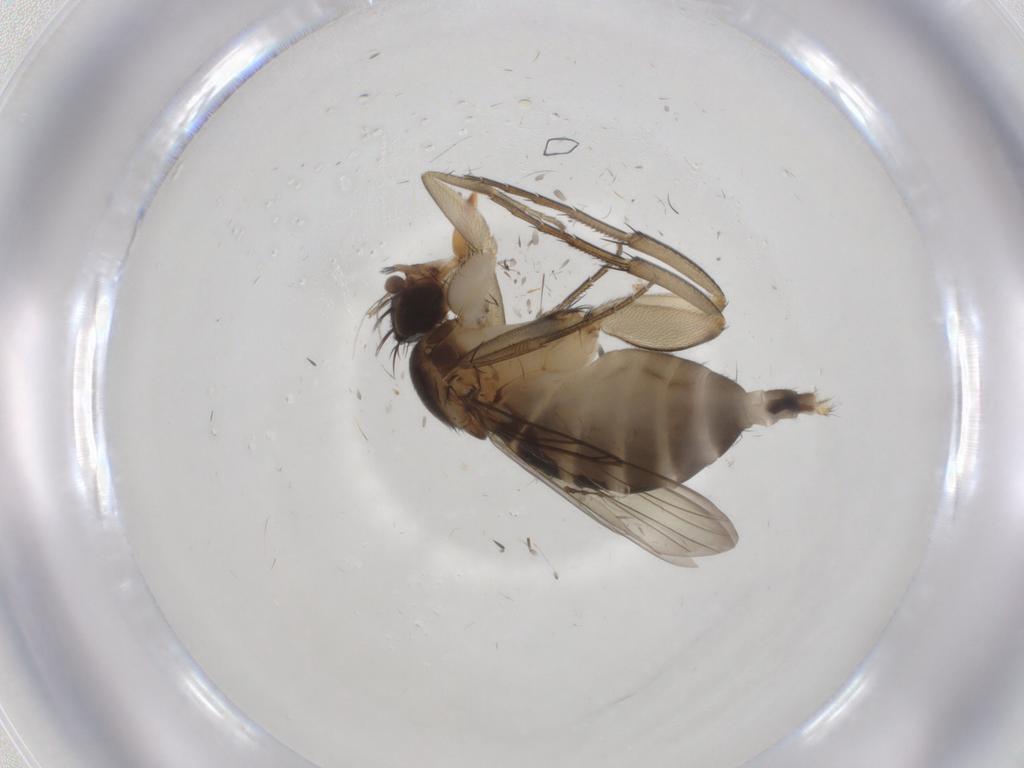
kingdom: Animalia
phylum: Arthropoda
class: Insecta
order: Diptera
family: Phoridae
